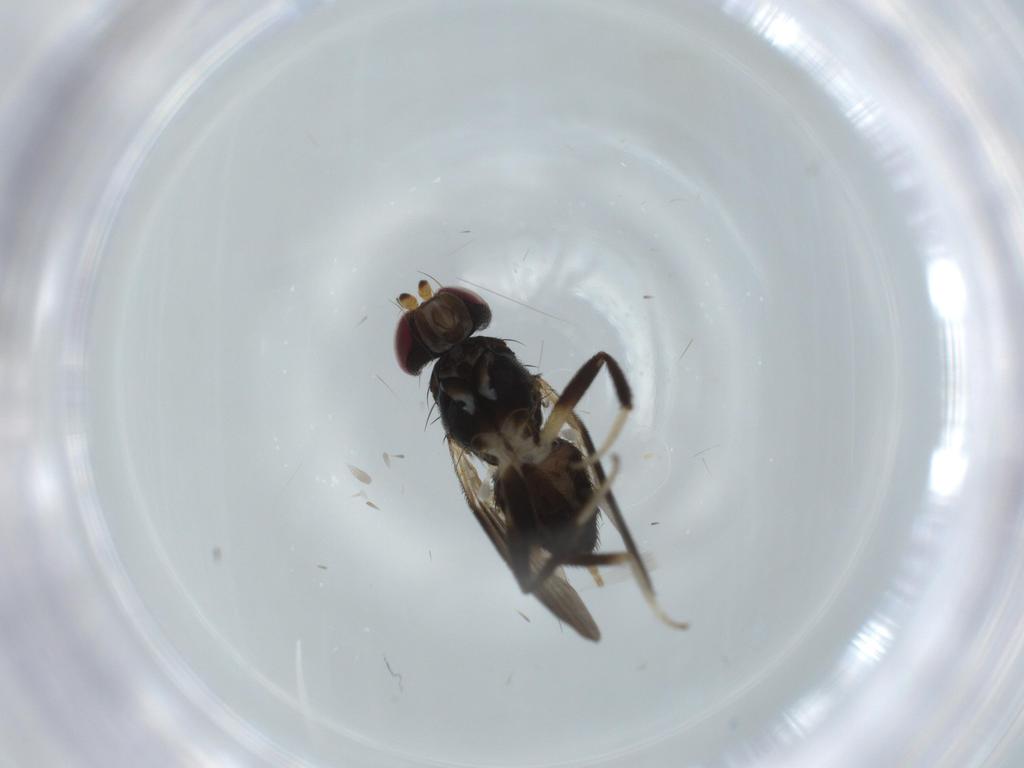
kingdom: Animalia
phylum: Arthropoda
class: Insecta
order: Diptera
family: Clusiidae
